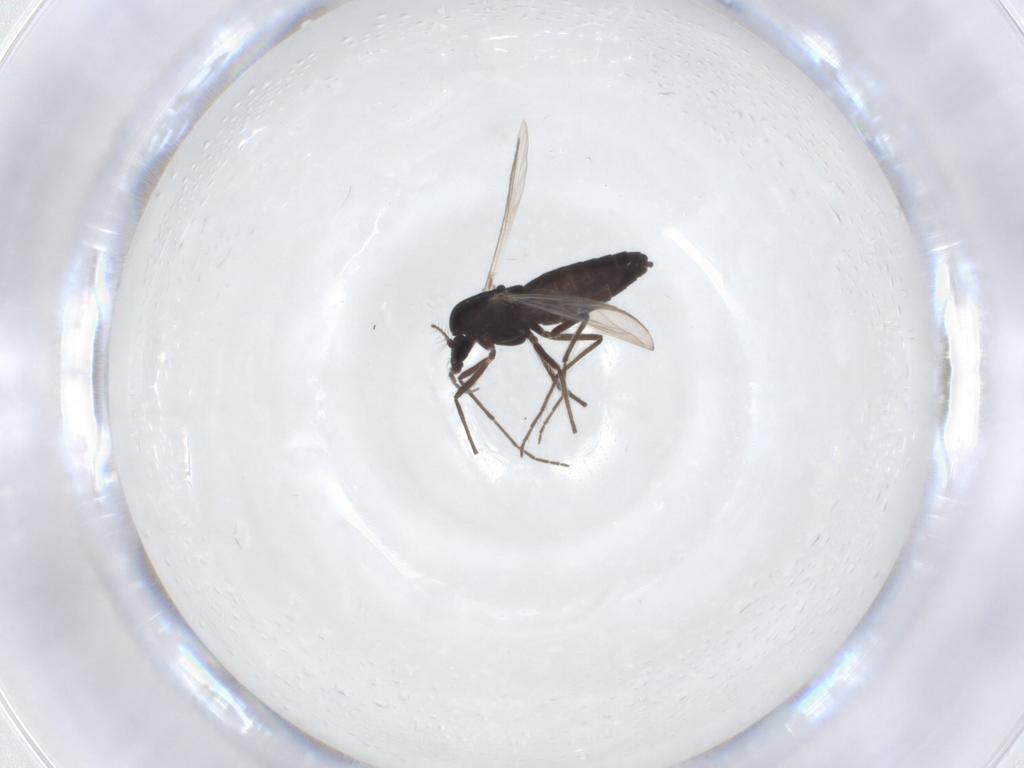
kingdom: Animalia
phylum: Arthropoda
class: Insecta
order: Diptera
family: Chironomidae
